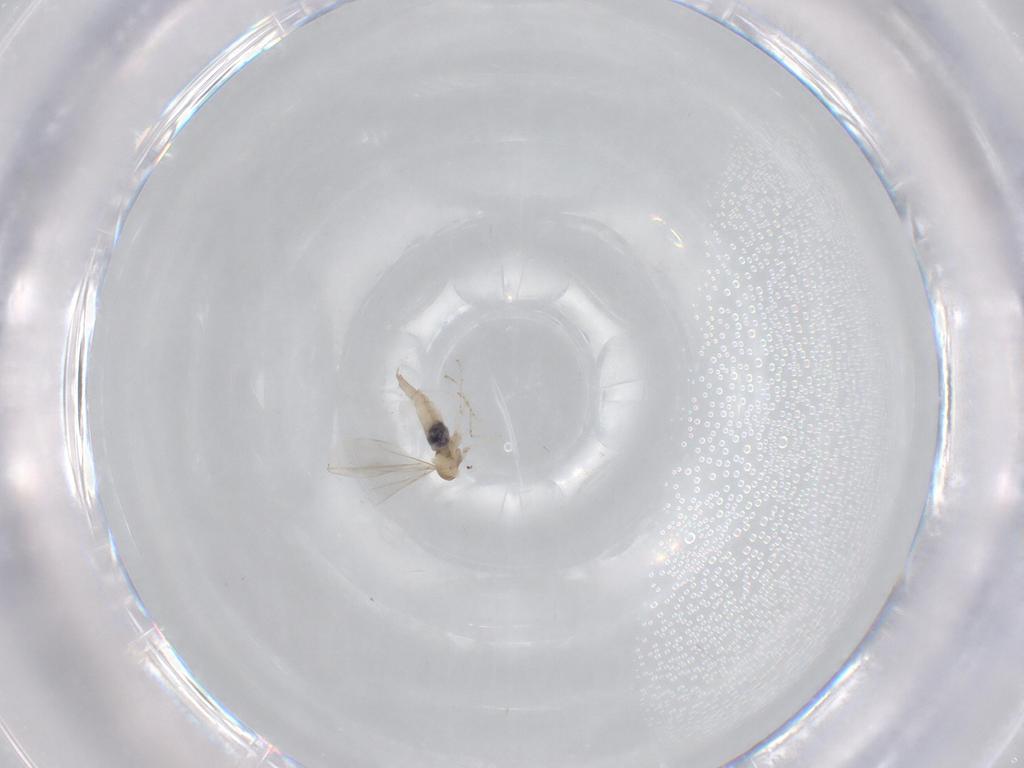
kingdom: Animalia
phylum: Arthropoda
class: Insecta
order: Diptera
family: Cecidomyiidae
